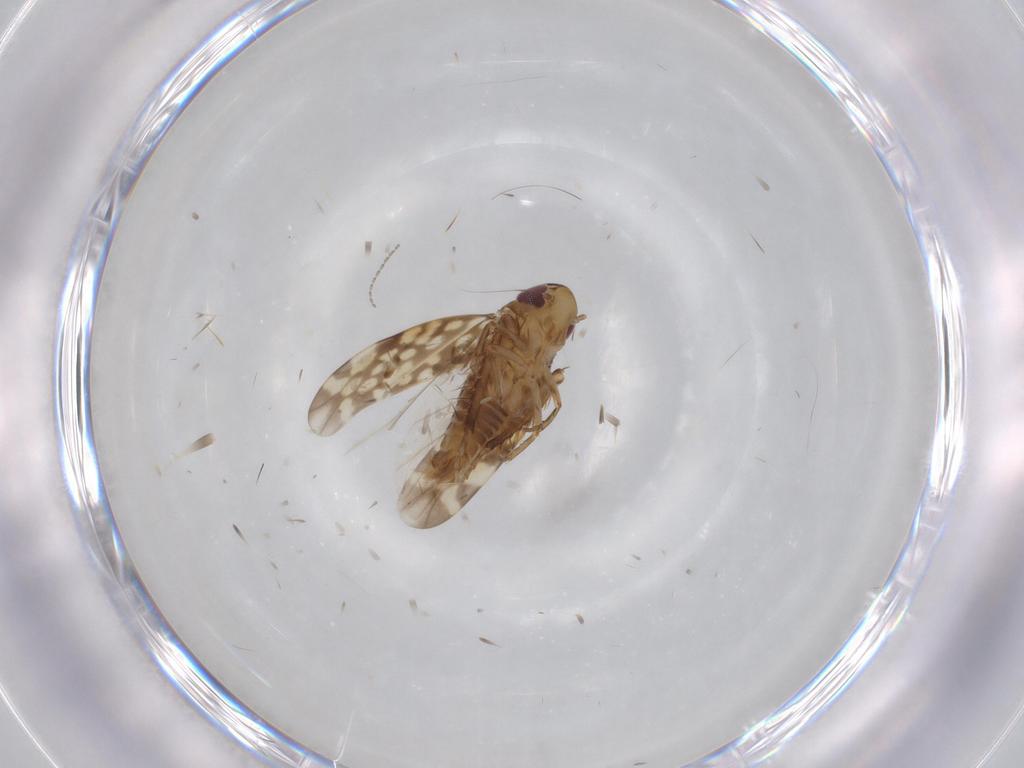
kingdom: Animalia
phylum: Arthropoda
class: Insecta
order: Hemiptera
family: Cicadellidae
